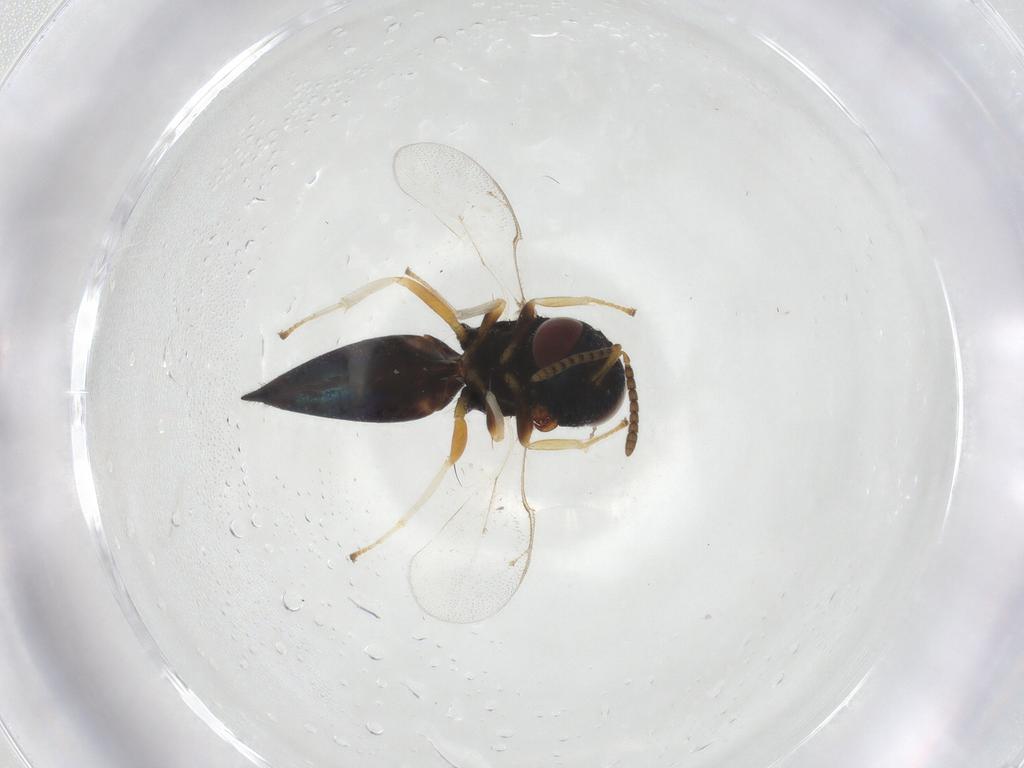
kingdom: Animalia
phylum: Arthropoda
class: Insecta
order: Hymenoptera
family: Pteromalidae
